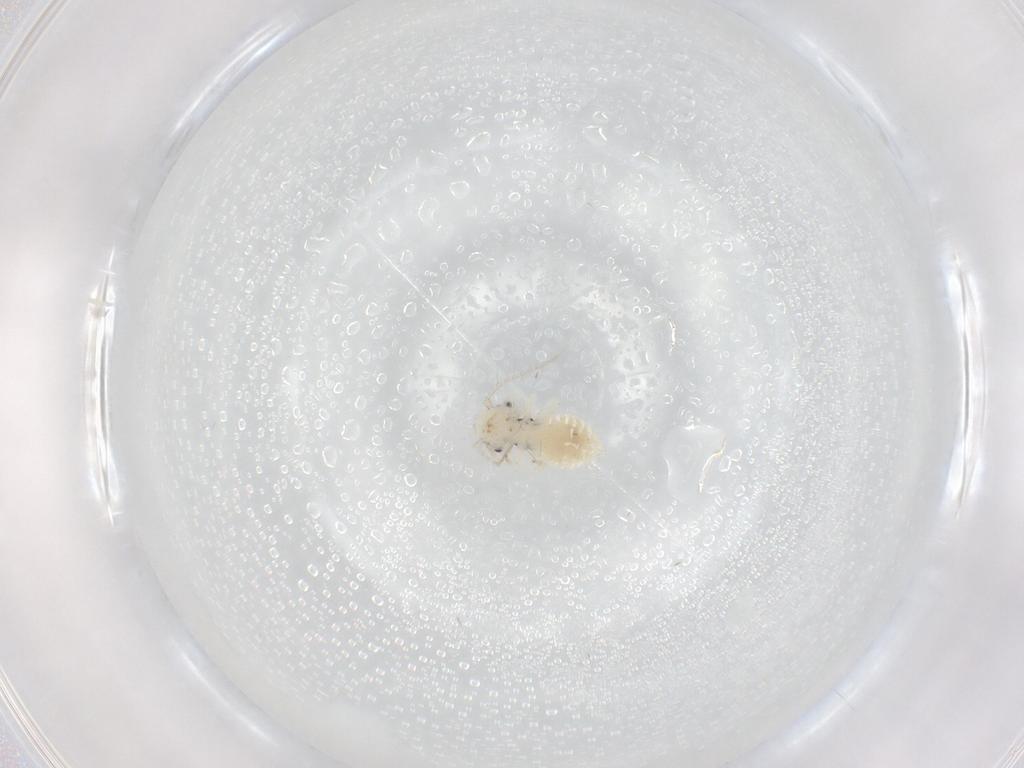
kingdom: Animalia
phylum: Arthropoda
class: Insecta
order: Psocodea
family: Caeciliusidae
